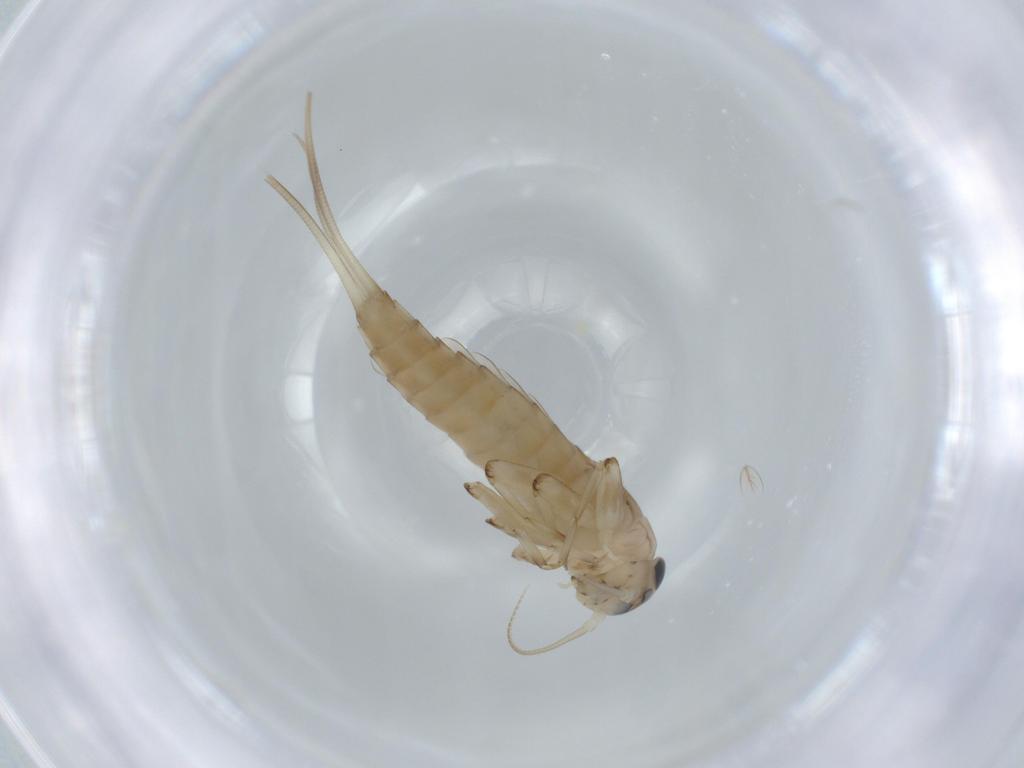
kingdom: Animalia
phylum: Arthropoda
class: Insecta
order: Ephemeroptera
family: Baetidae
